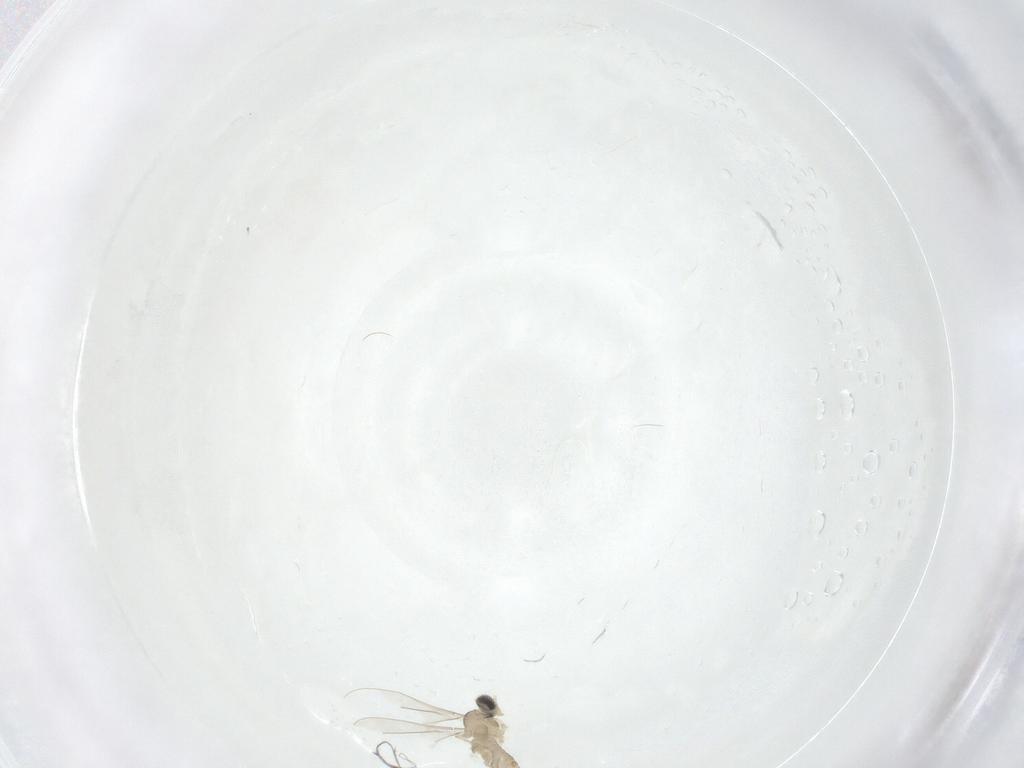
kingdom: Animalia
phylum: Arthropoda
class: Insecta
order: Diptera
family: Cecidomyiidae
